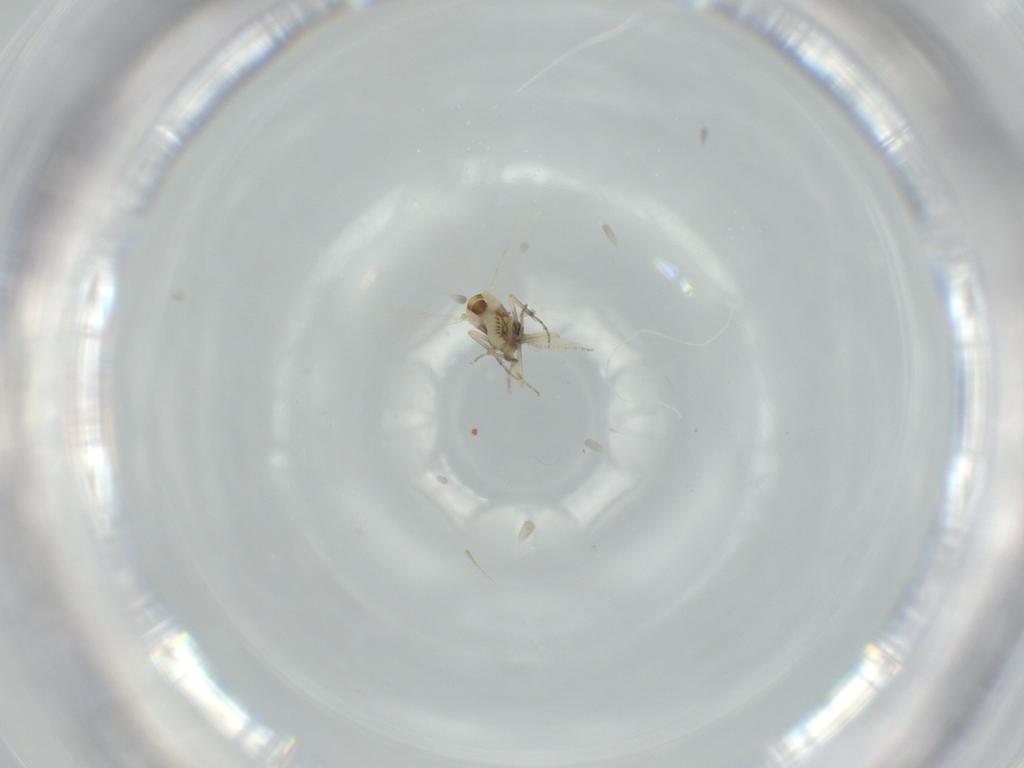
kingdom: Animalia
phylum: Arthropoda
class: Insecta
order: Diptera
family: Ceratopogonidae
